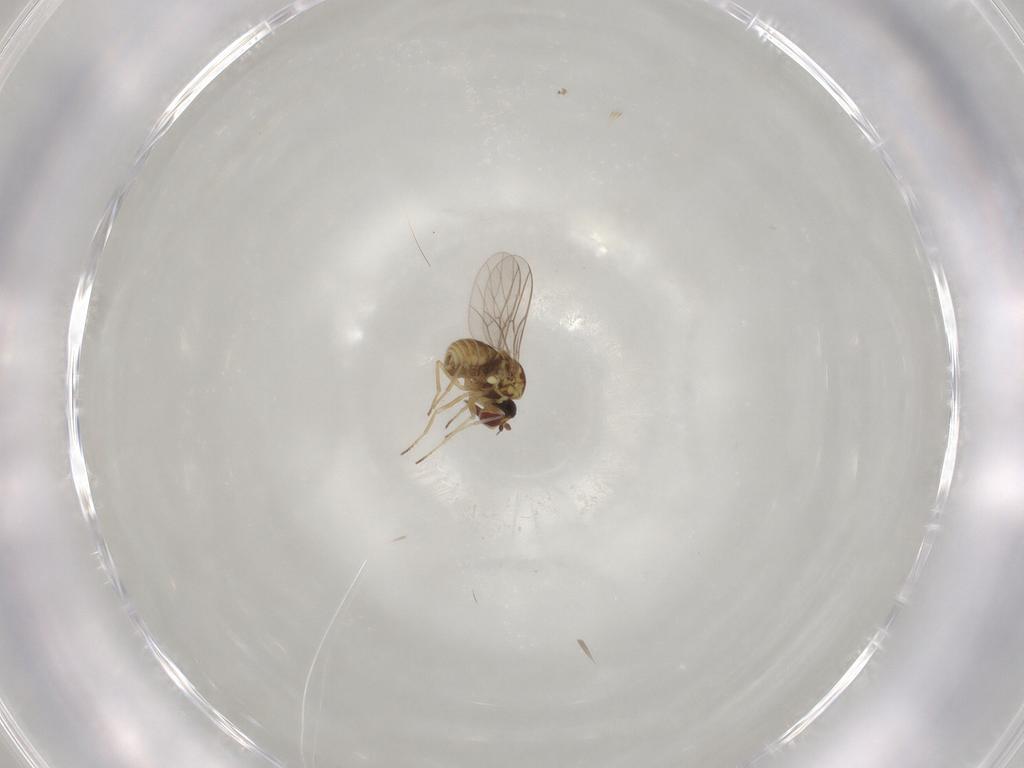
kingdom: Animalia
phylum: Arthropoda
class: Insecta
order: Diptera
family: Mythicomyiidae
